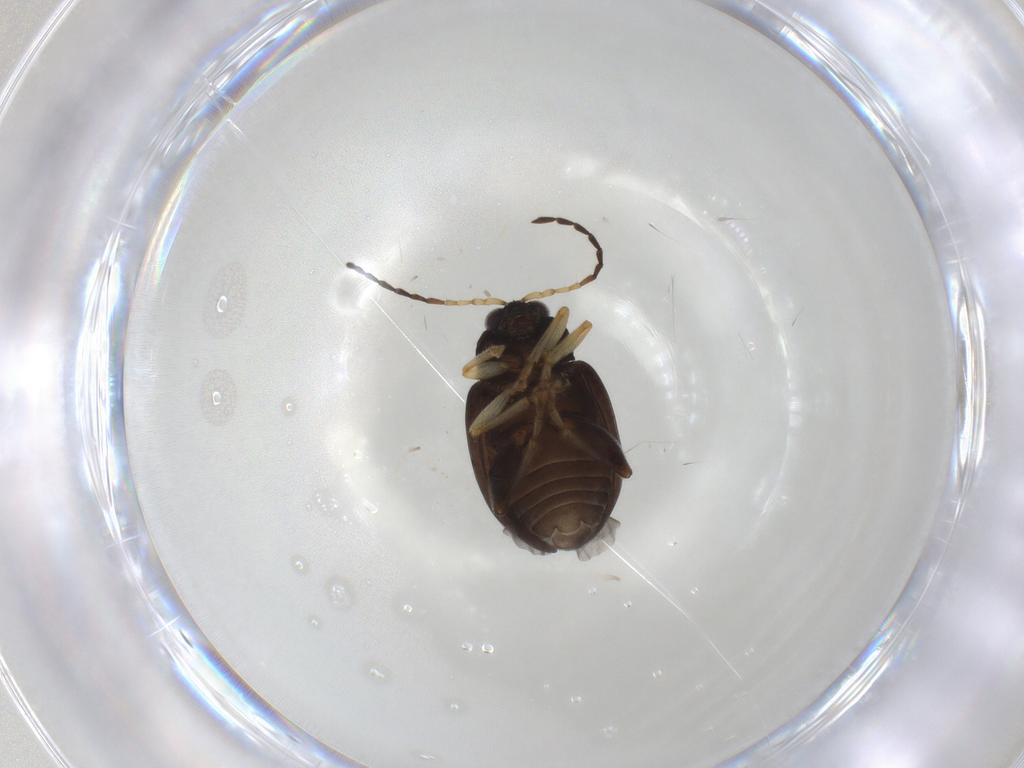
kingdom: Animalia
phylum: Arthropoda
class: Insecta
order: Coleoptera
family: Chrysomelidae
